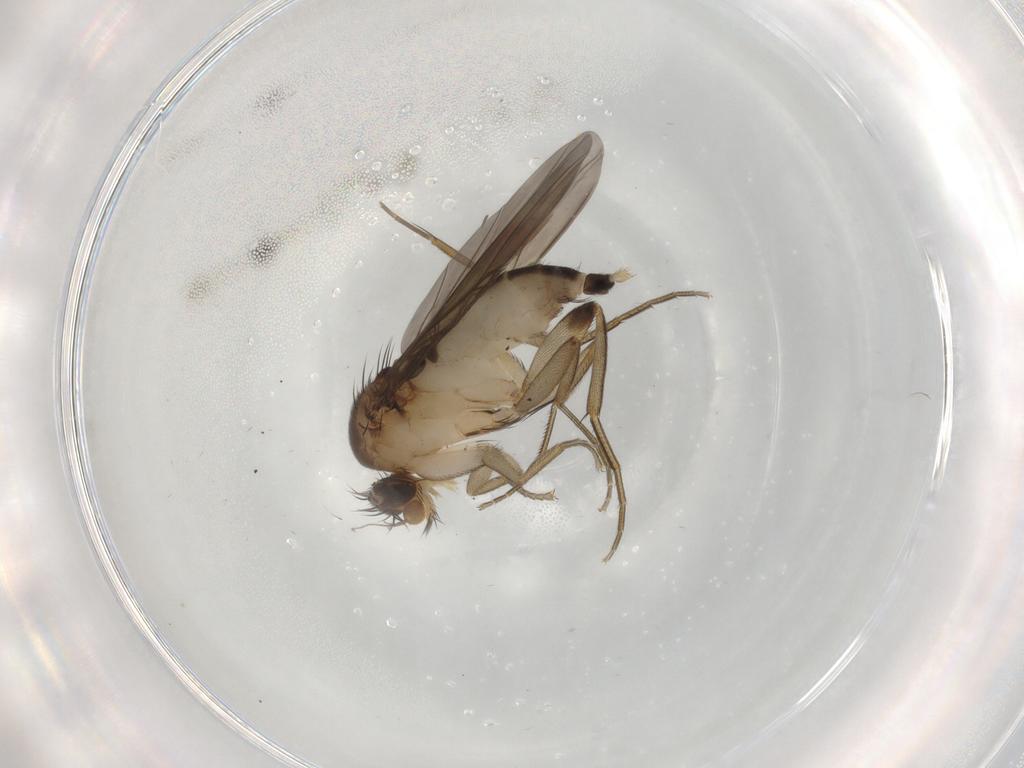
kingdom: Animalia
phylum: Arthropoda
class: Insecta
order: Diptera
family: Phoridae
